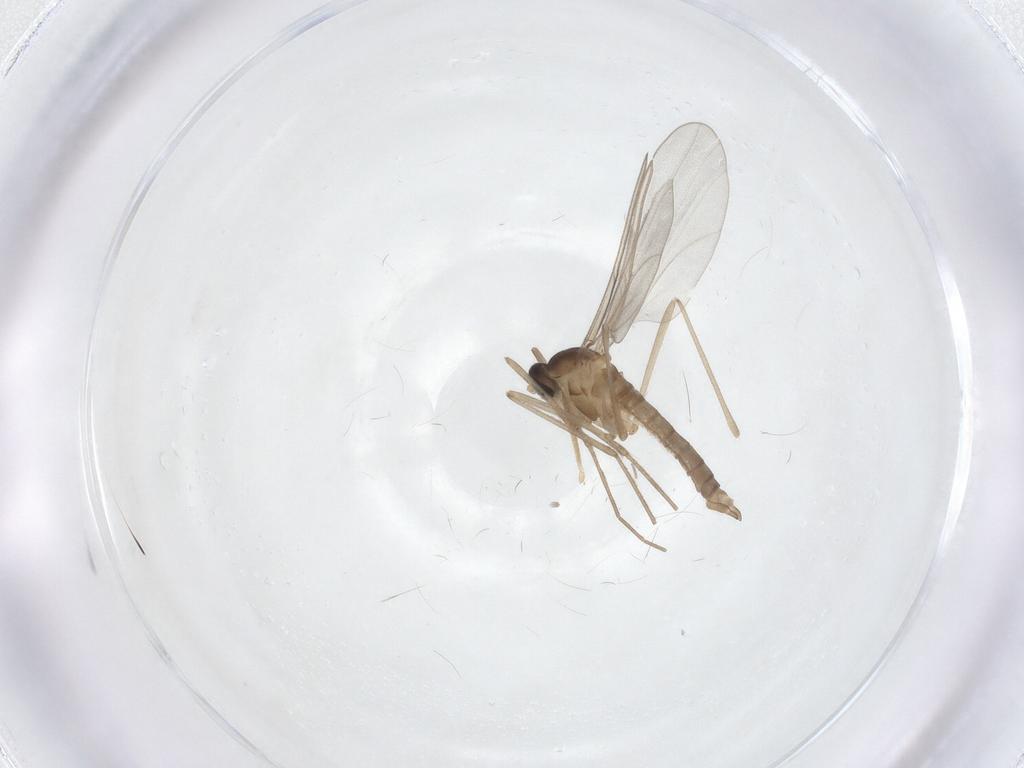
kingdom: Animalia
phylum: Arthropoda
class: Insecta
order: Diptera
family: Cecidomyiidae
